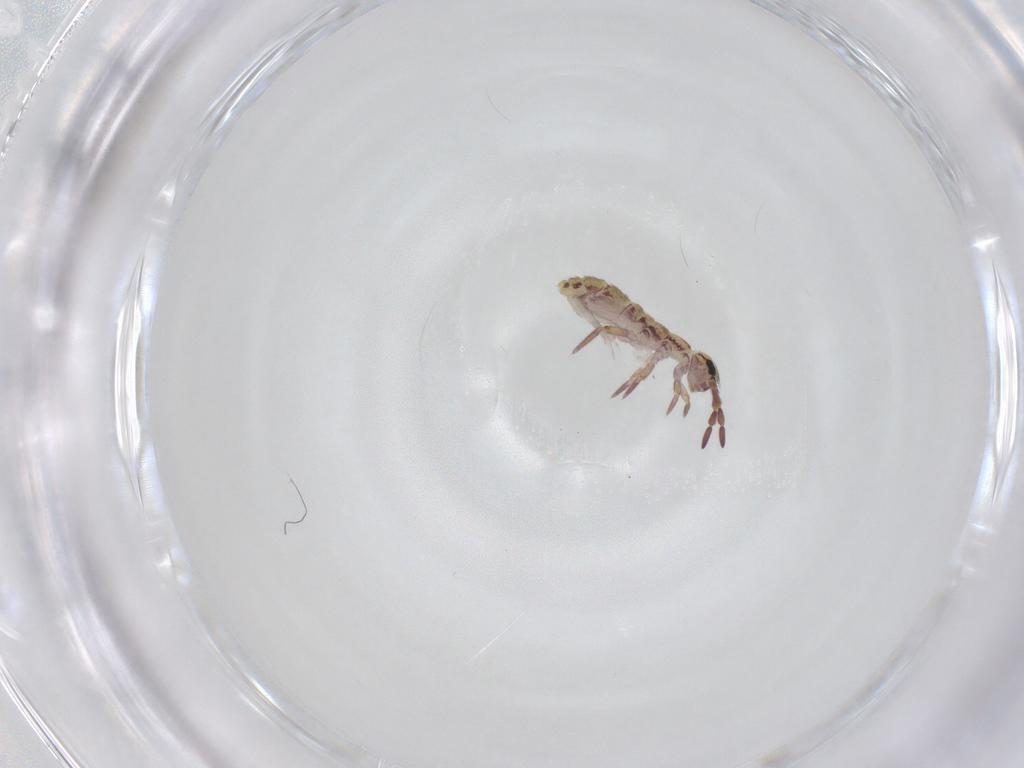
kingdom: Animalia
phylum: Arthropoda
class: Collembola
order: Entomobryomorpha
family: Isotomidae
